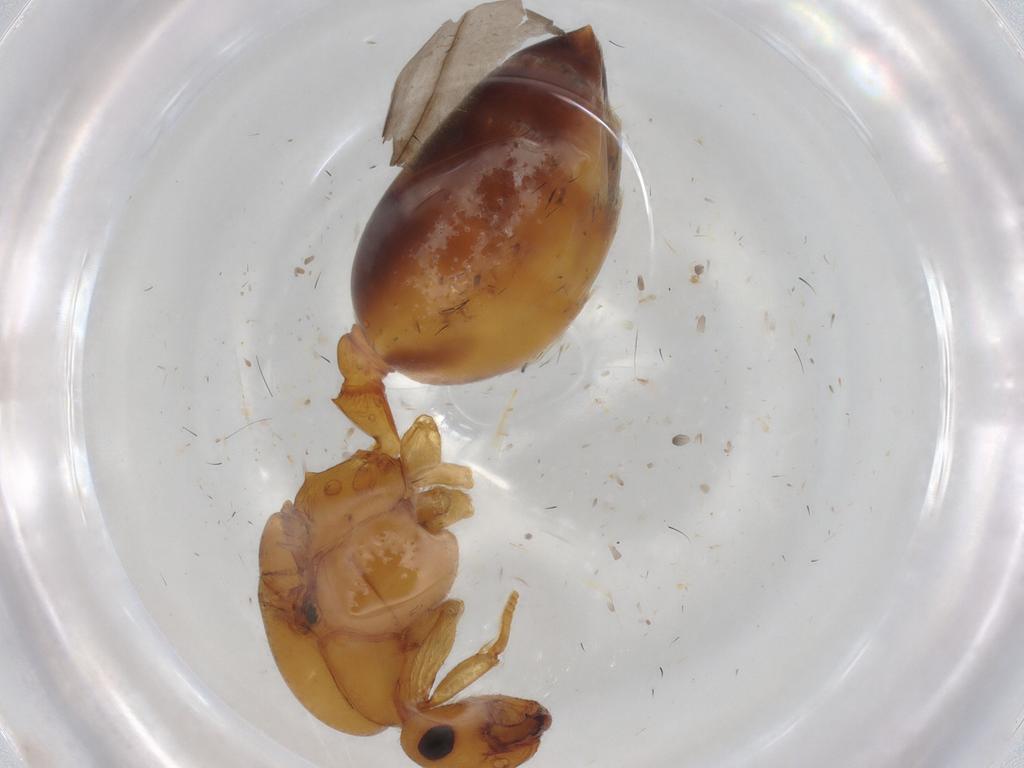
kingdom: Animalia
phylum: Arthropoda
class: Insecta
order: Hymenoptera
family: Formicidae
